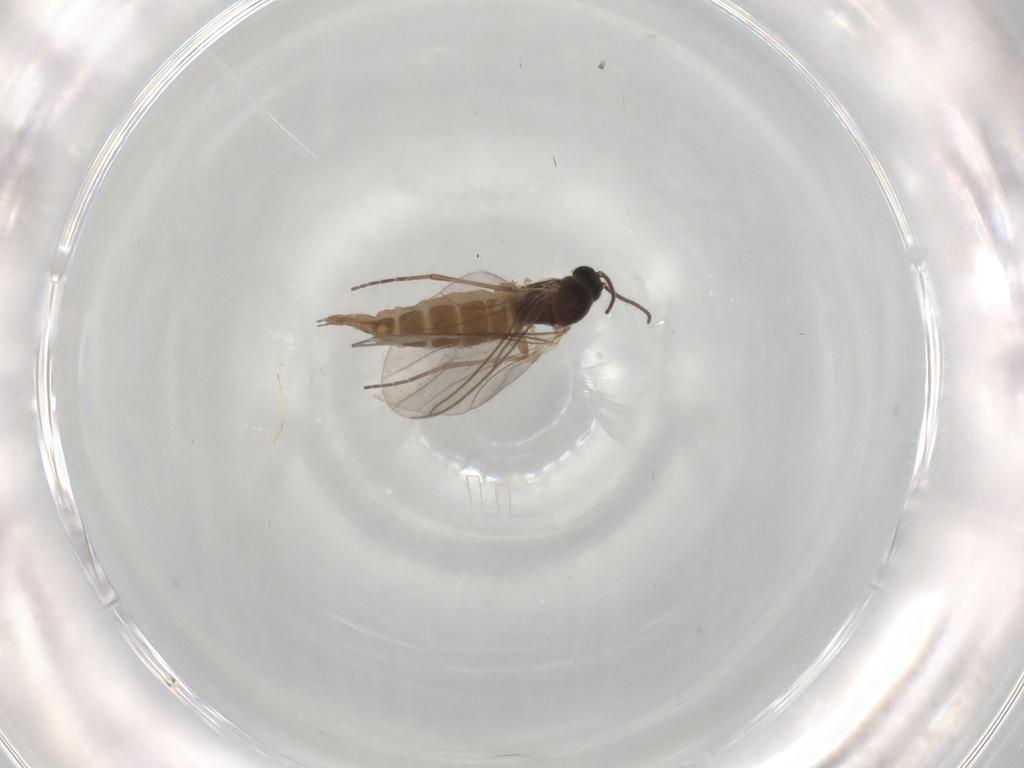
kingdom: Animalia
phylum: Arthropoda
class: Insecta
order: Diptera
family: Sciaridae
